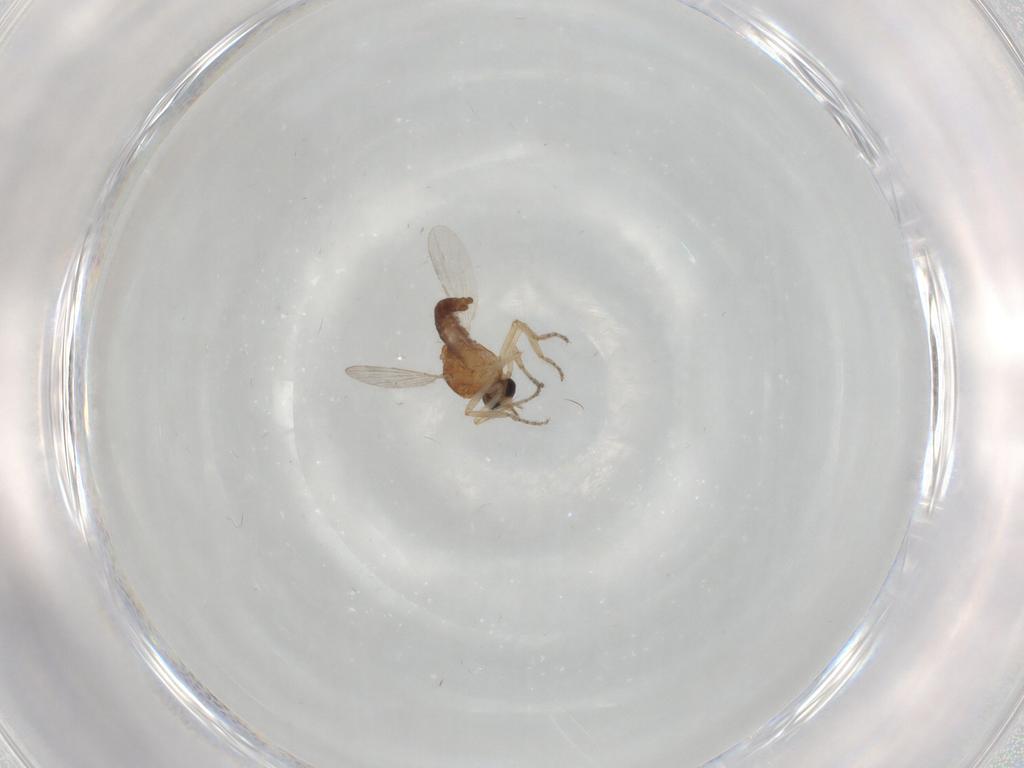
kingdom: Animalia
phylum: Arthropoda
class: Insecta
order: Diptera
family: Ceratopogonidae
